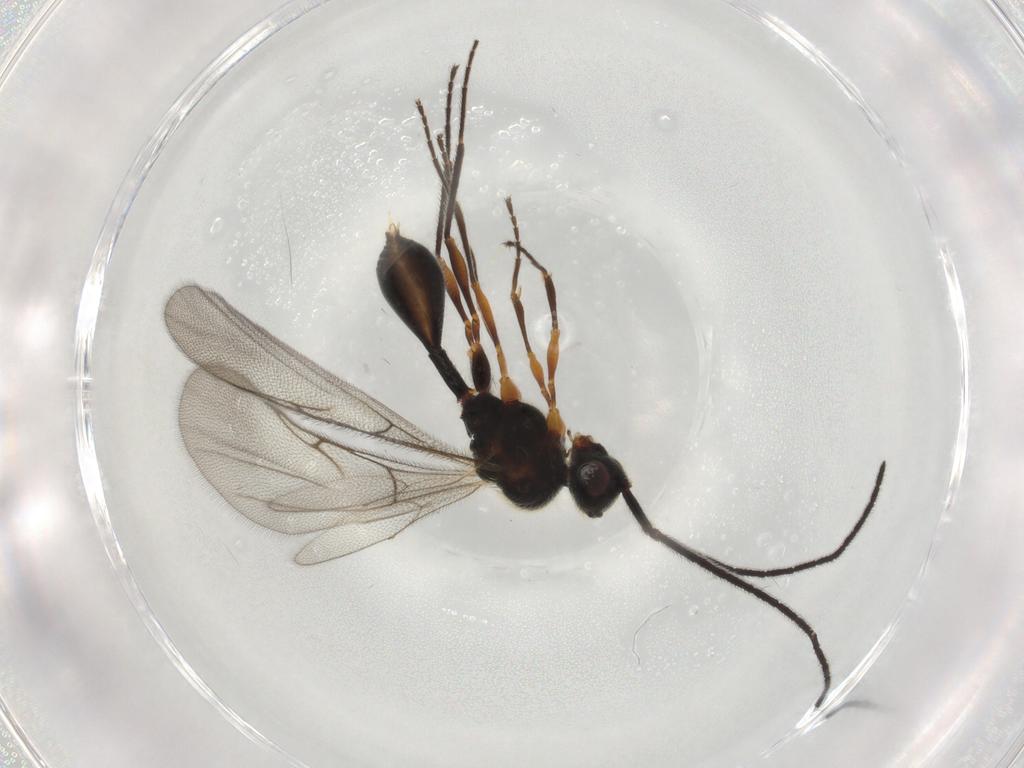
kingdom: Animalia
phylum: Arthropoda
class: Insecta
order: Hymenoptera
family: Diapriidae
